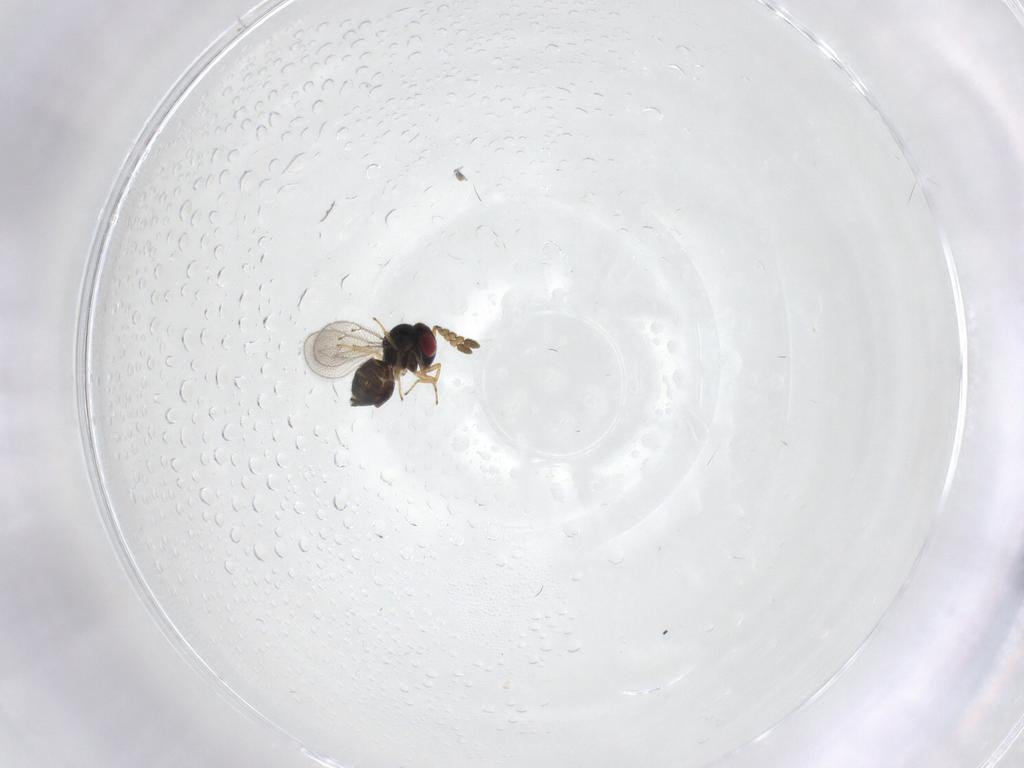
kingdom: Animalia
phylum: Arthropoda
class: Insecta
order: Hymenoptera
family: Eulophidae
